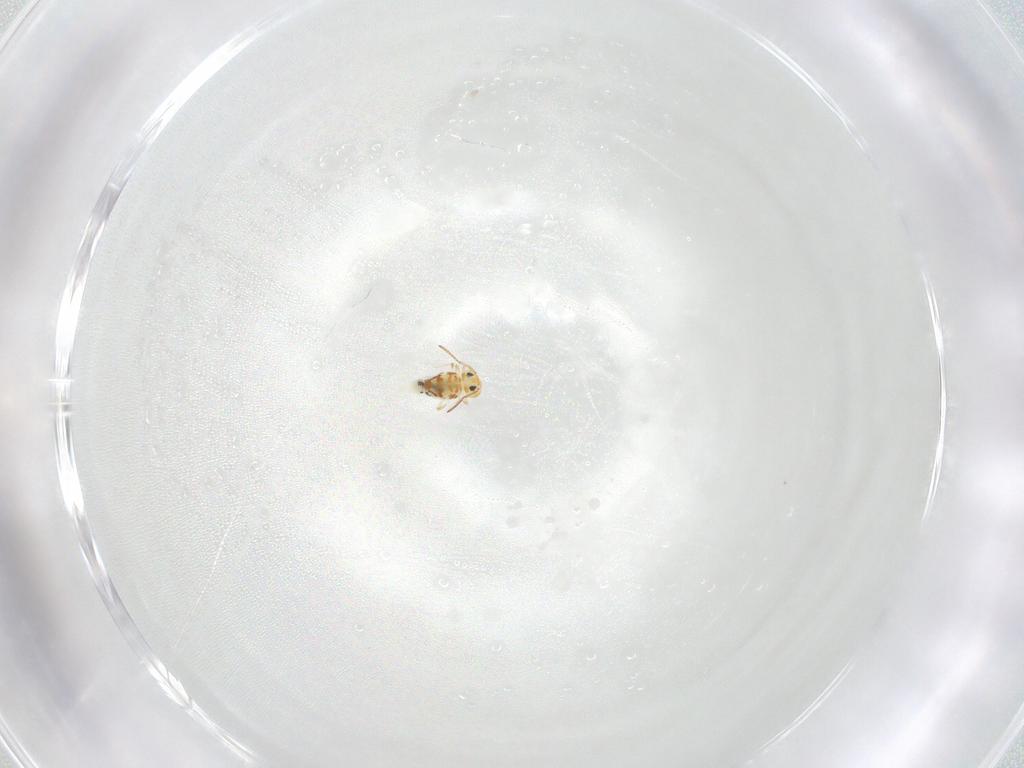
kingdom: Animalia
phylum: Arthropoda
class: Collembola
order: Symphypleona
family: Bourletiellidae
